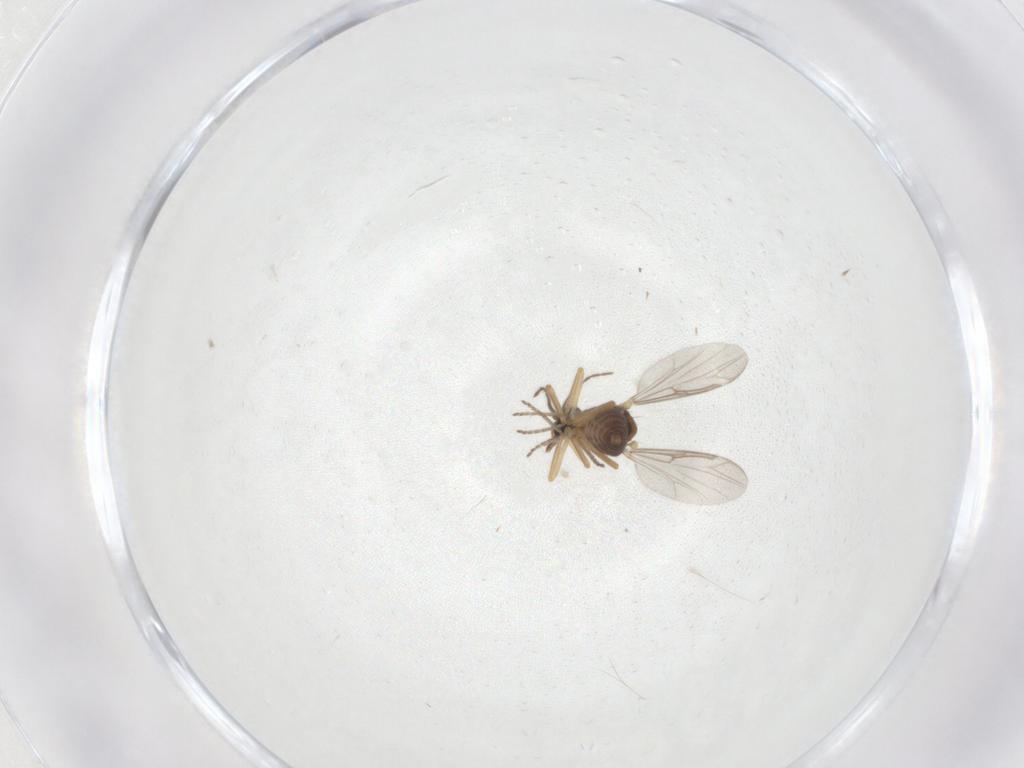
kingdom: Animalia
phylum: Arthropoda
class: Insecta
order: Diptera
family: Ceratopogonidae
